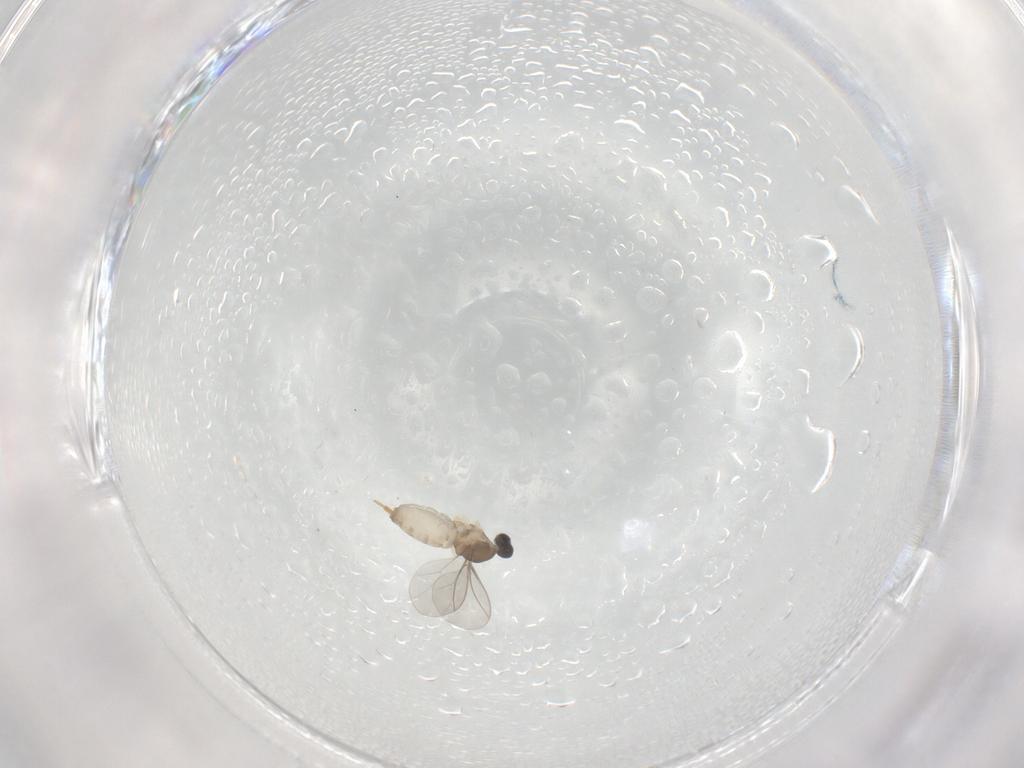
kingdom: Animalia
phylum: Arthropoda
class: Insecta
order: Diptera
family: Cecidomyiidae
